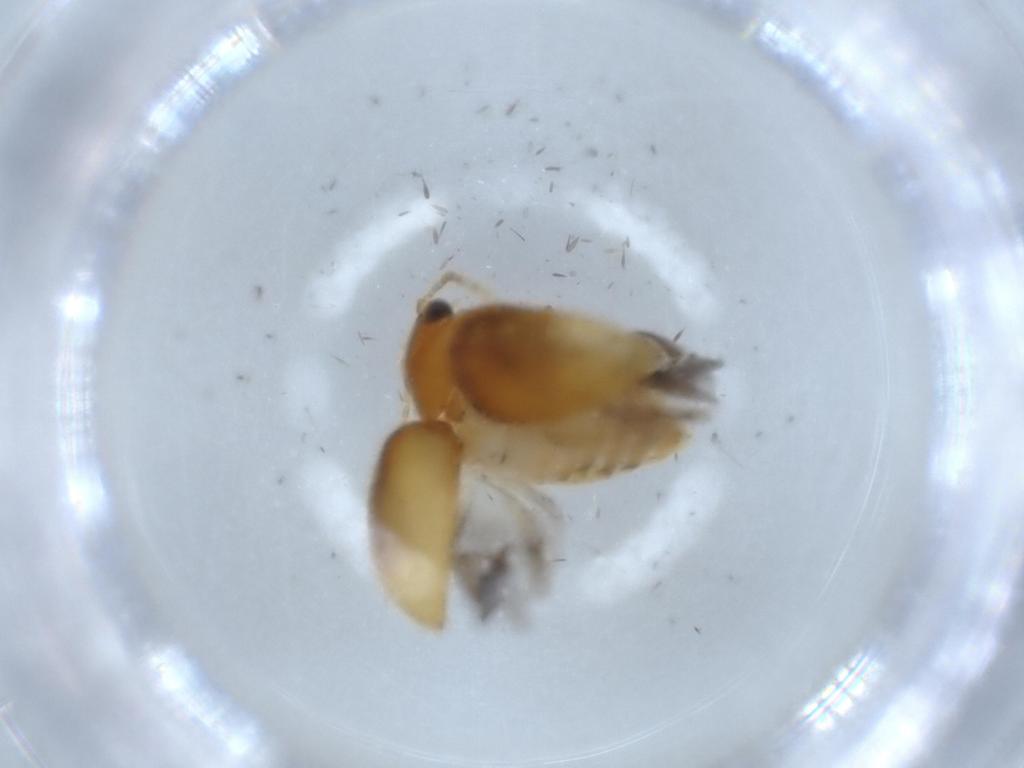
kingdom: Animalia
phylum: Arthropoda
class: Insecta
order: Coleoptera
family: Scirtidae
